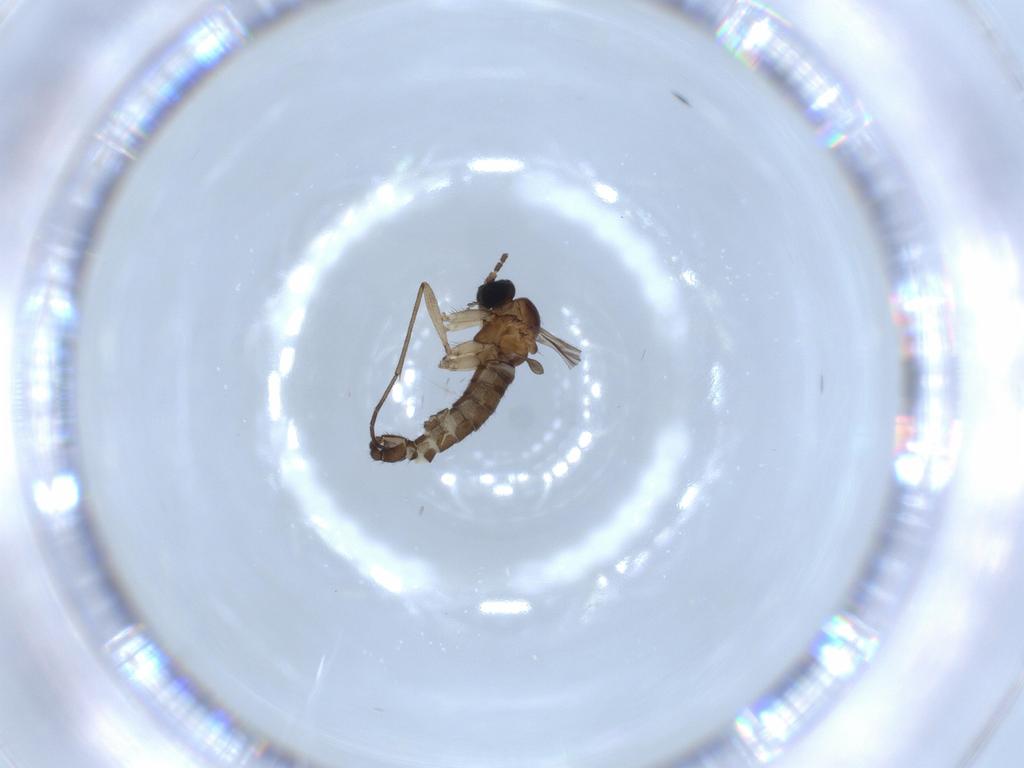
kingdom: Animalia
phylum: Arthropoda
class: Insecta
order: Diptera
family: Sciaridae
